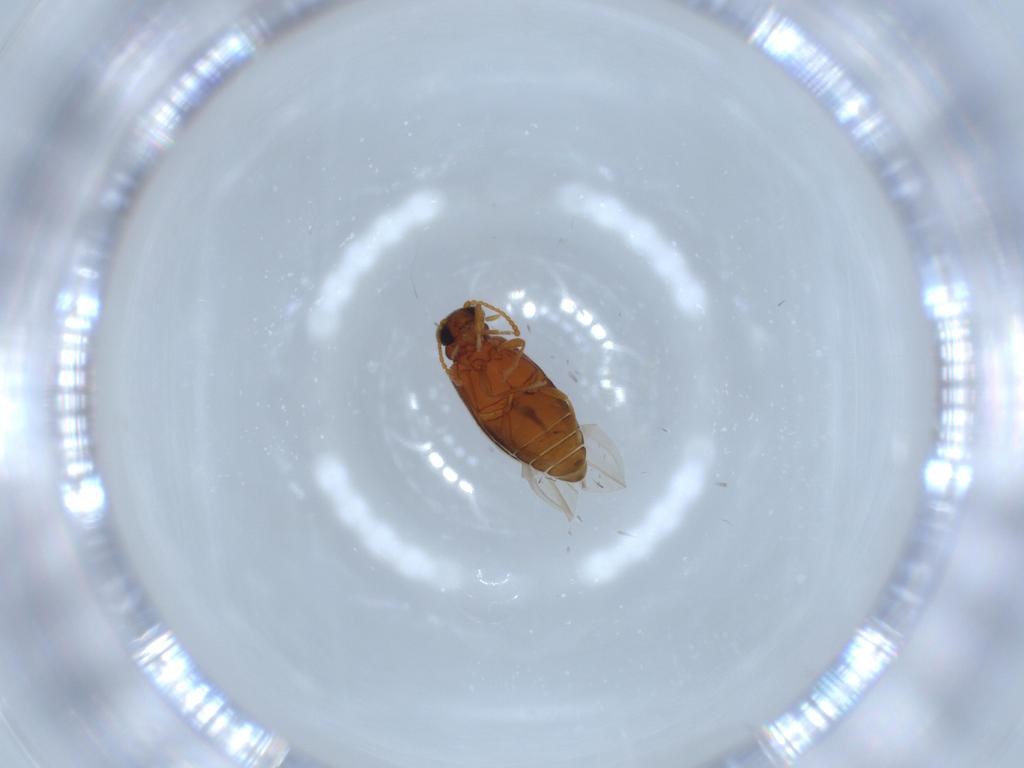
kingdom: Animalia
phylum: Arthropoda
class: Insecta
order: Coleoptera
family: Aderidae
